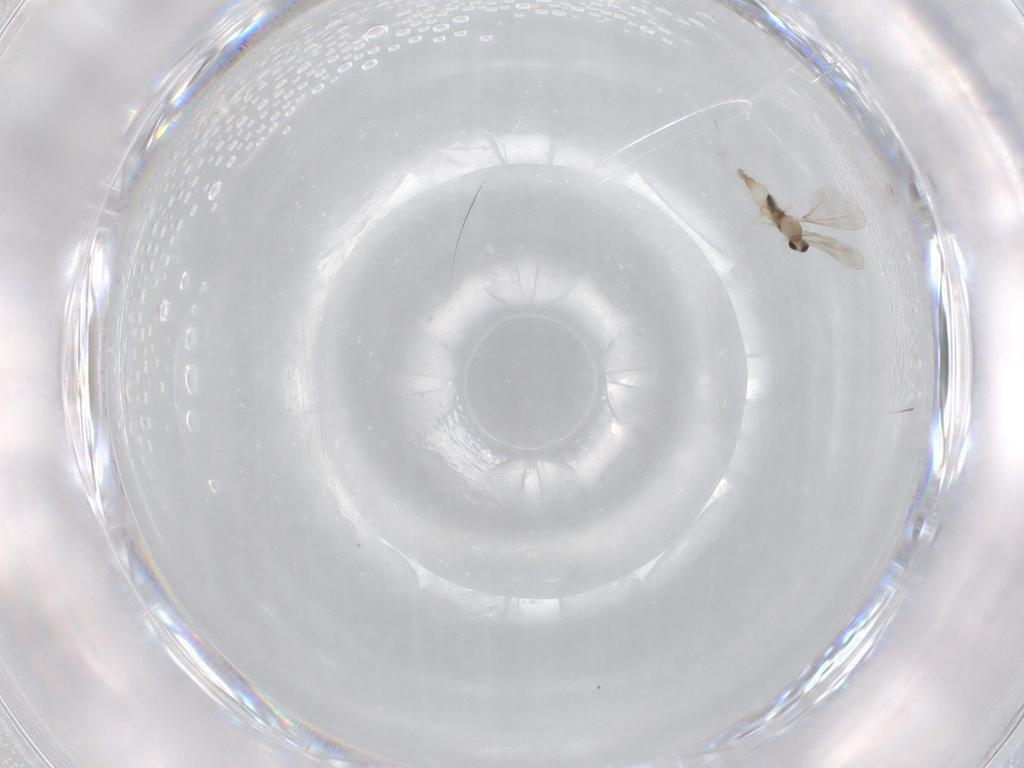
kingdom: Animalia
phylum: Arthropoda
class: Insecta
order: Diptera
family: Cecidomyiidae
